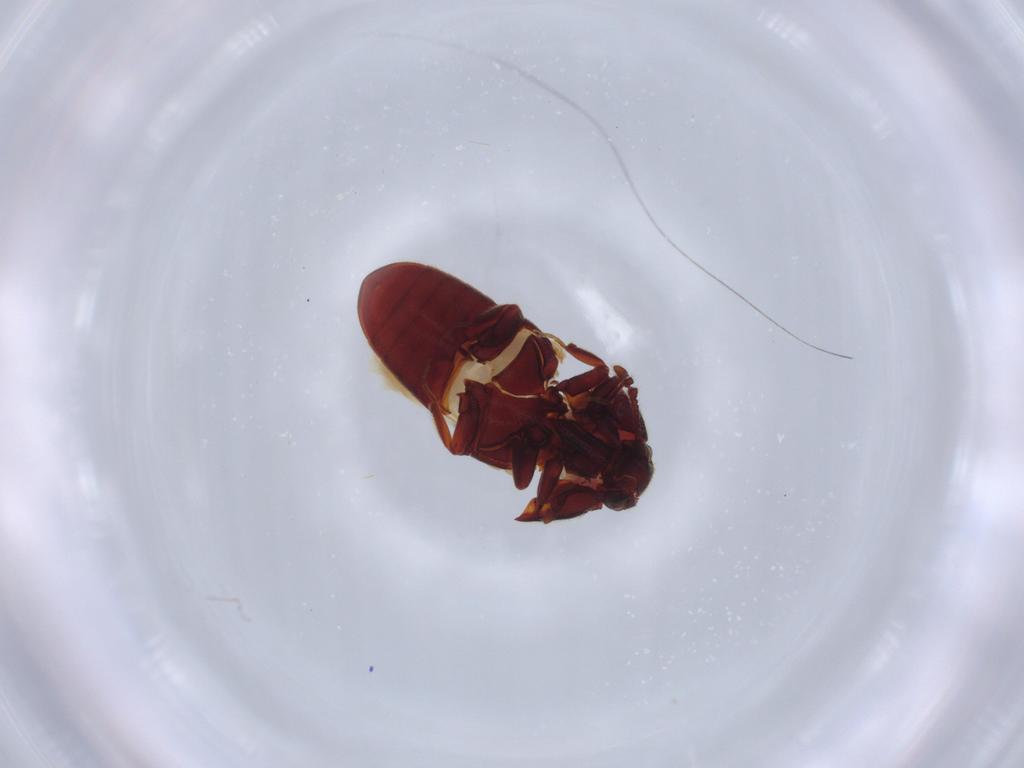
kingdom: Animalia
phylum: Arthropoda
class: Insecta
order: Coleoptera
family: Throscidae
